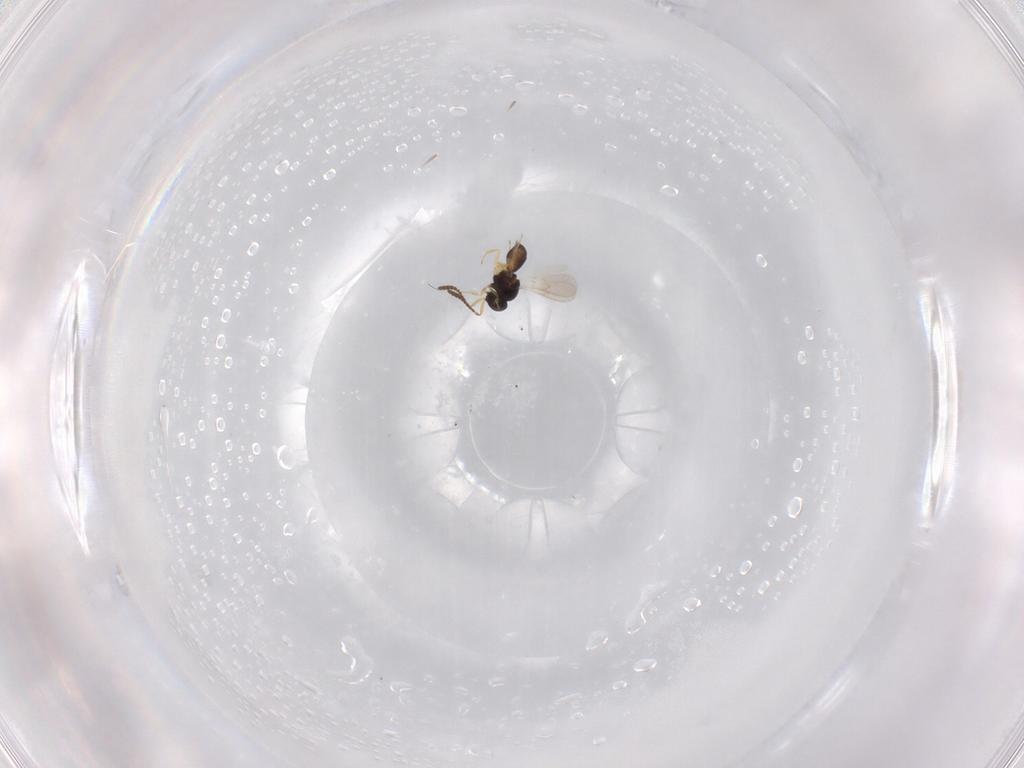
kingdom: Animalia
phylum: Arthropoda
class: Insecta
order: Hymenoptera
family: Scelionidae
